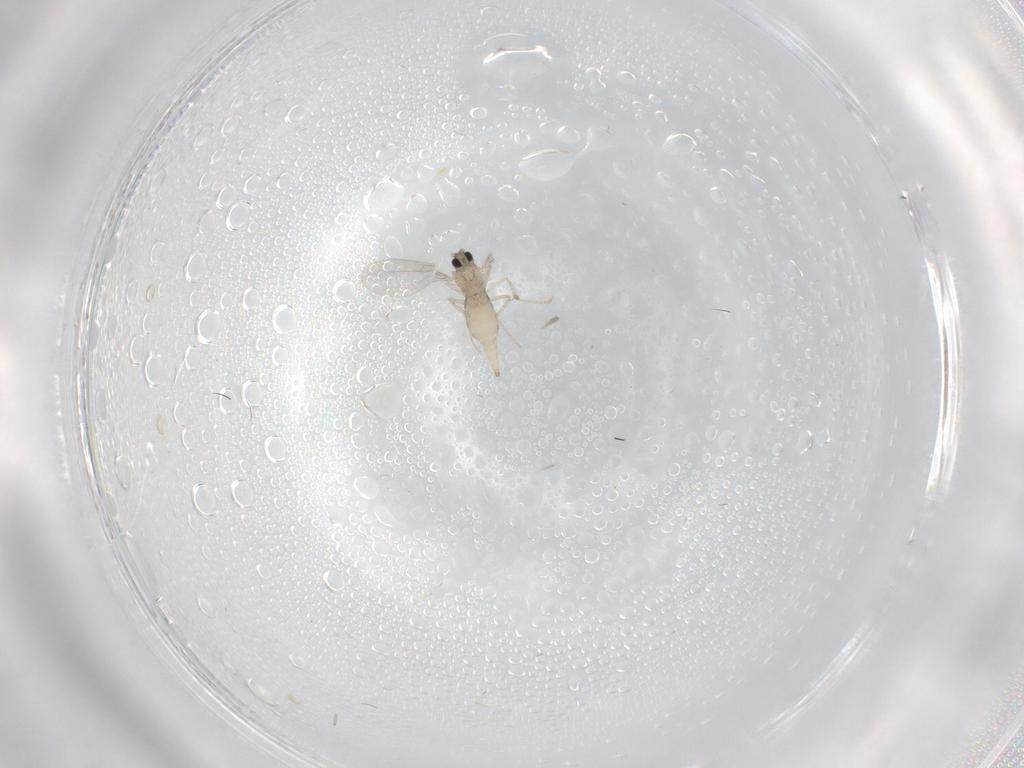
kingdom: Animalia
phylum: Arthropoda
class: Insecta
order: Diptera
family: Cecidomyiidae
